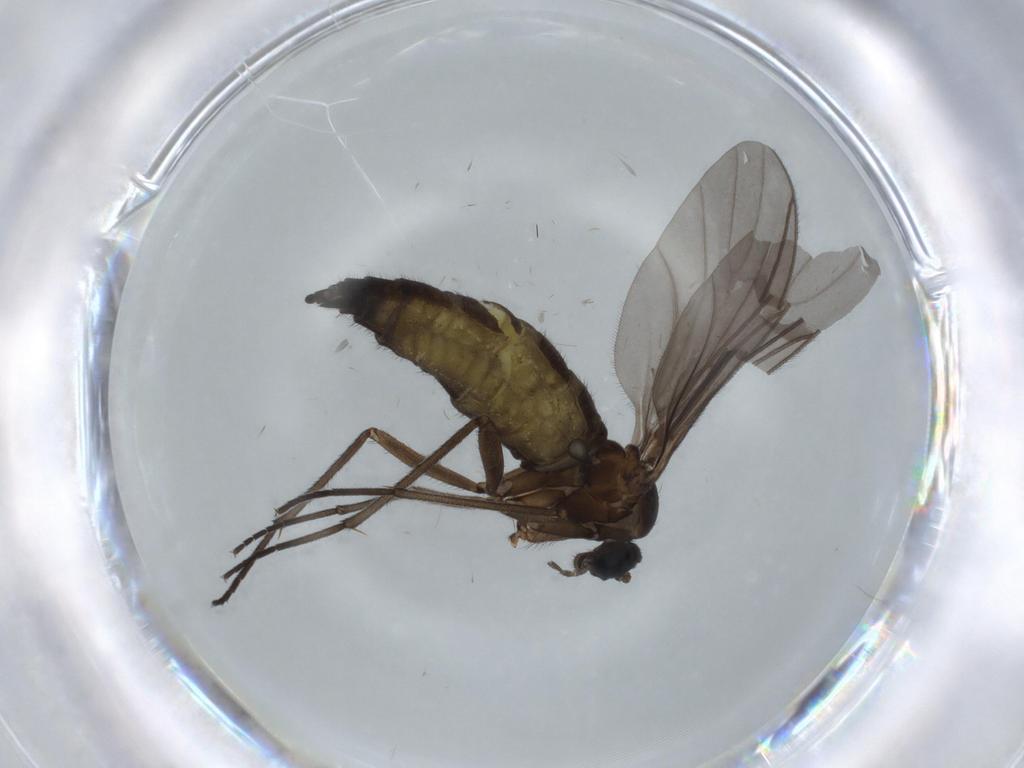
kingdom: Animalia
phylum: Arthropoda
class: Insecta
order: Diptera
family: Sciaridae
